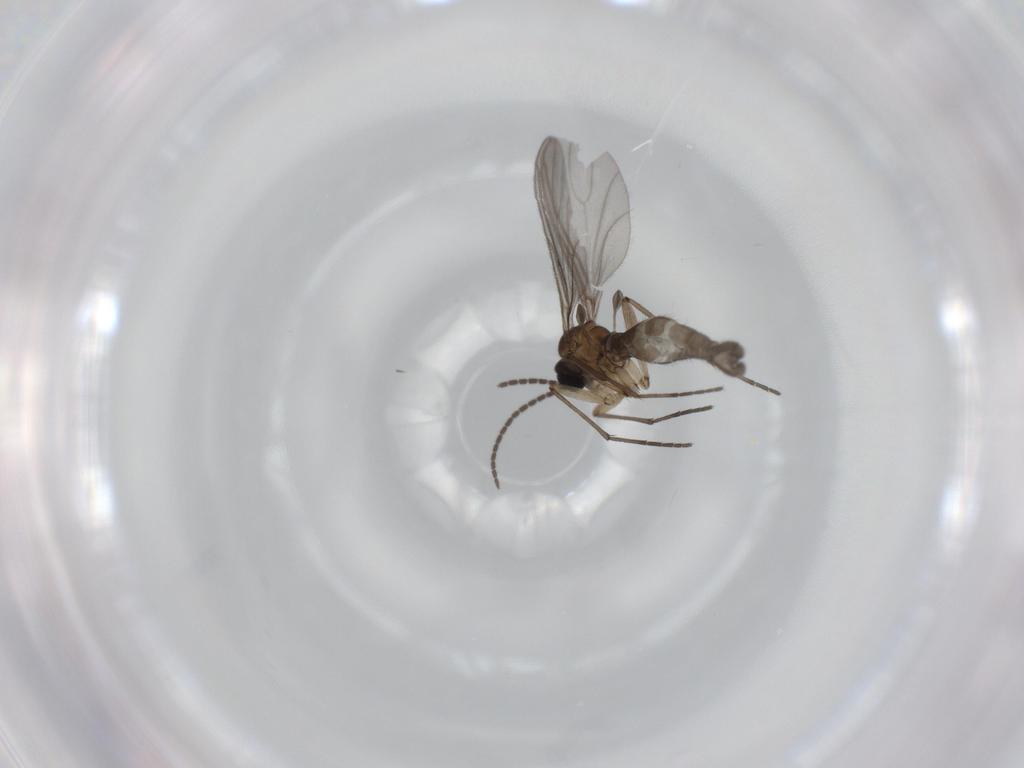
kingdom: Animalia
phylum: Arthropoda
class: Insecta
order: Diptera
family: Sciaridae
